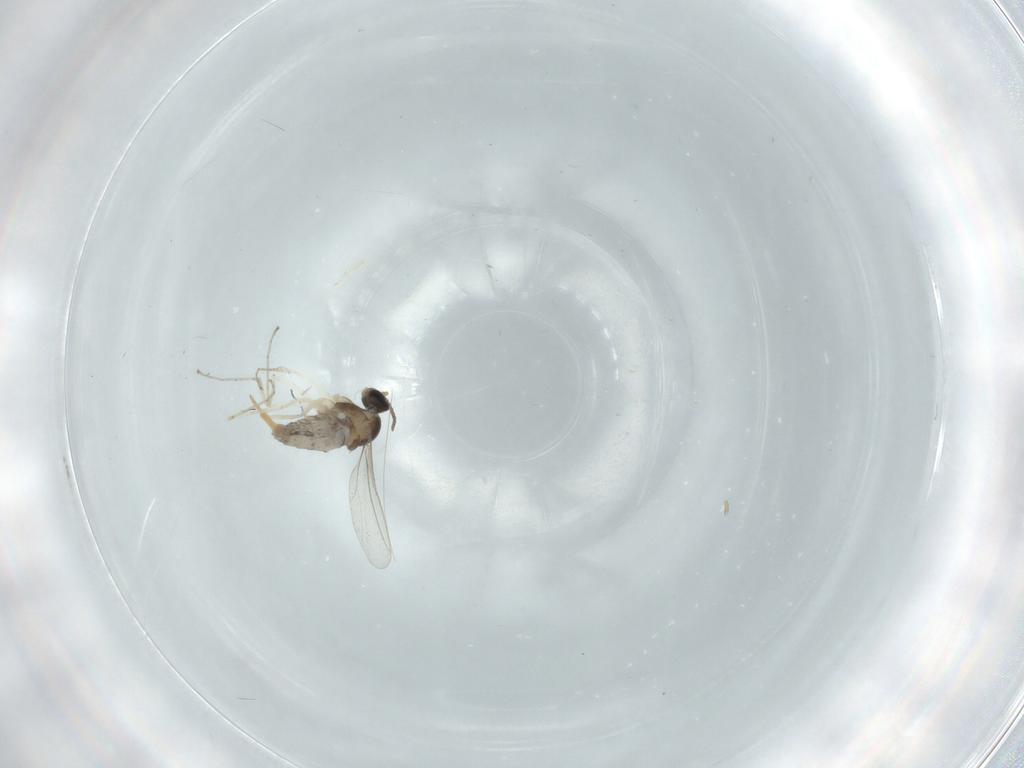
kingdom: Animalia
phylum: Arthropoda
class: Insecta
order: Diptera
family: Cecidomyiidae
